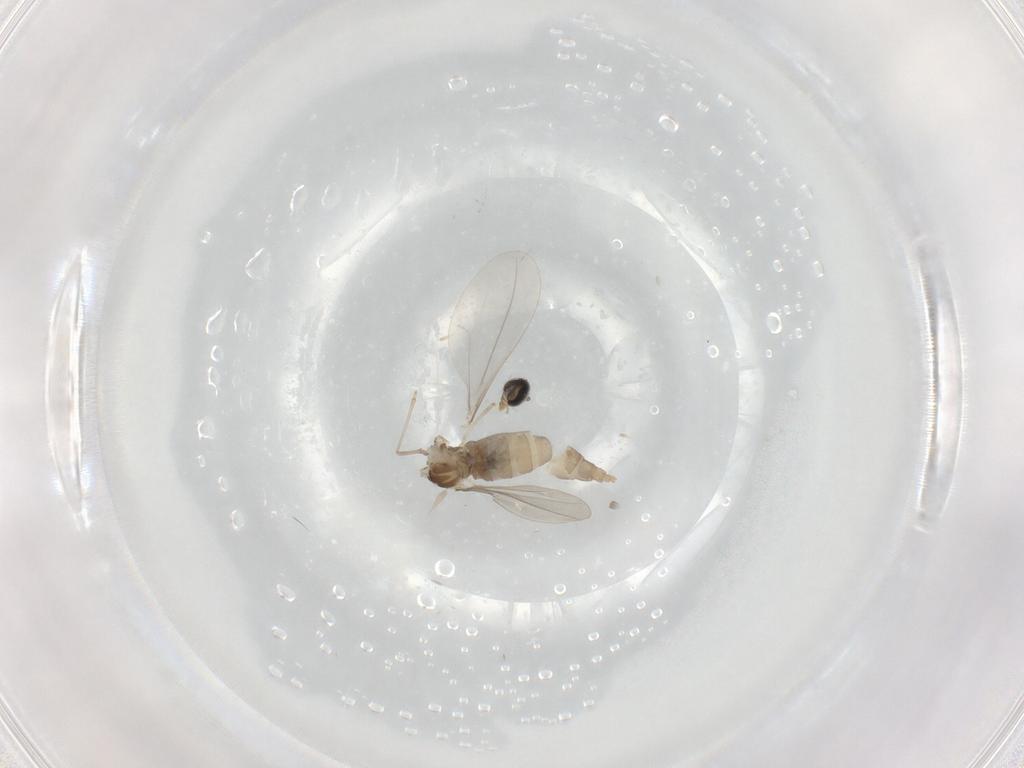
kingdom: Animalia
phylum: Arthropoda
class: Insecta
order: Diptera
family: Cecidomyiidae
